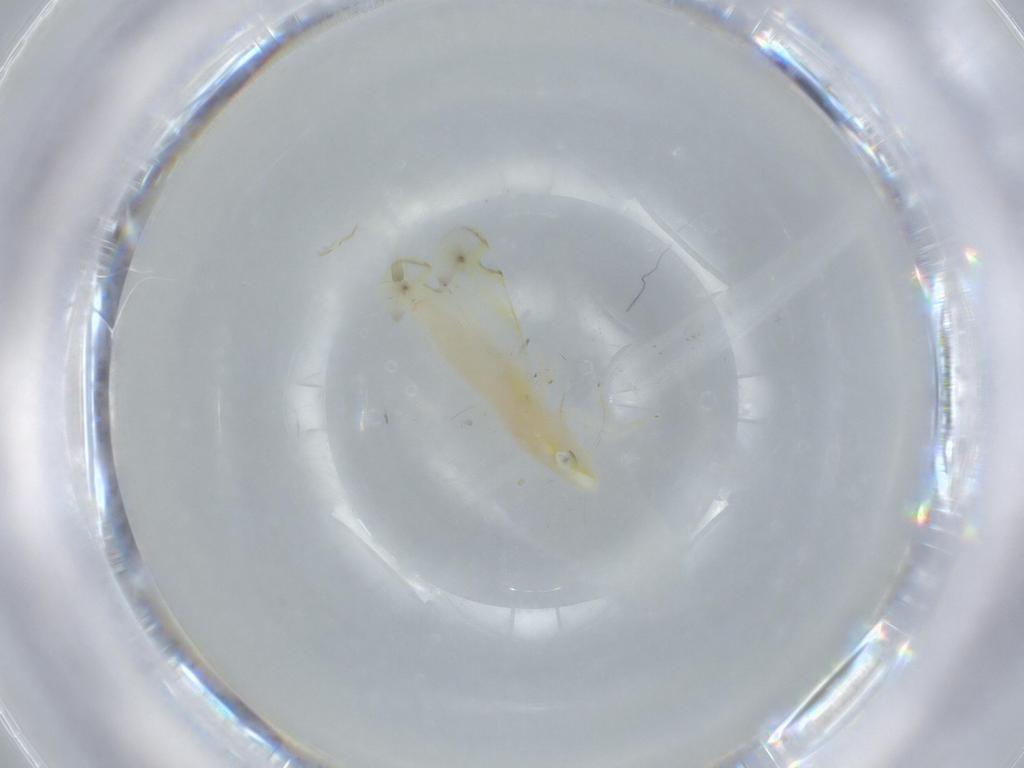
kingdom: Animalia
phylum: Arthropoda
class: Insecta
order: Hemiptera
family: Cicadellidae
